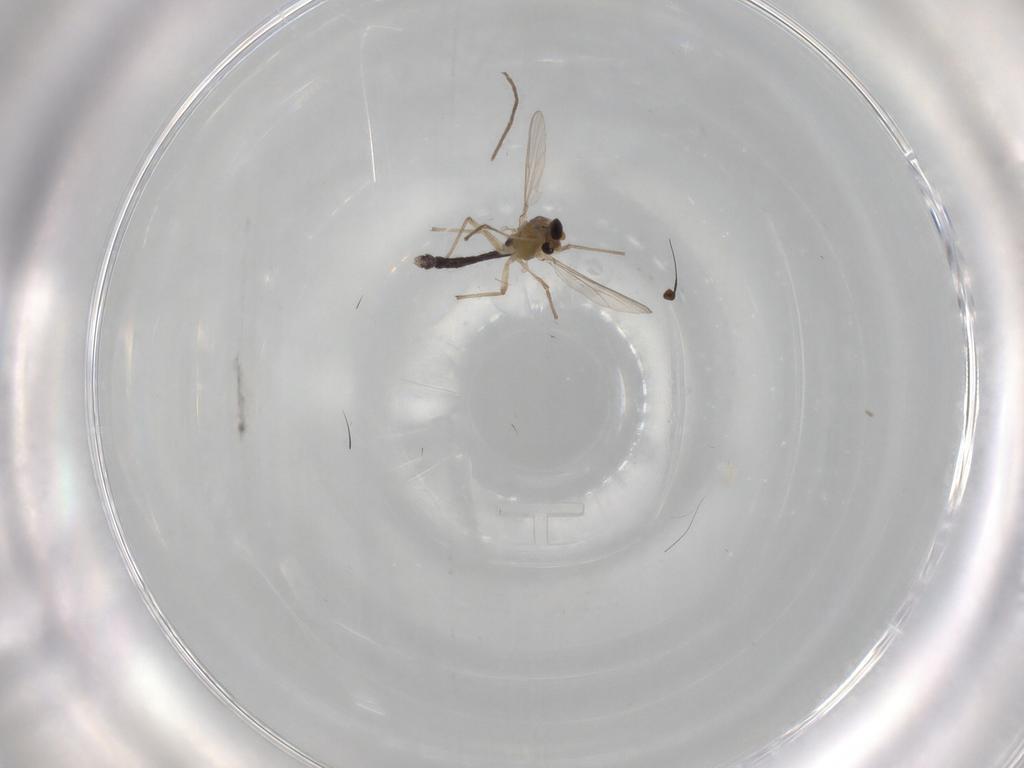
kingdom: Animalia
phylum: Arthropoda
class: Insecta
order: Diptera
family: Chironomidae
